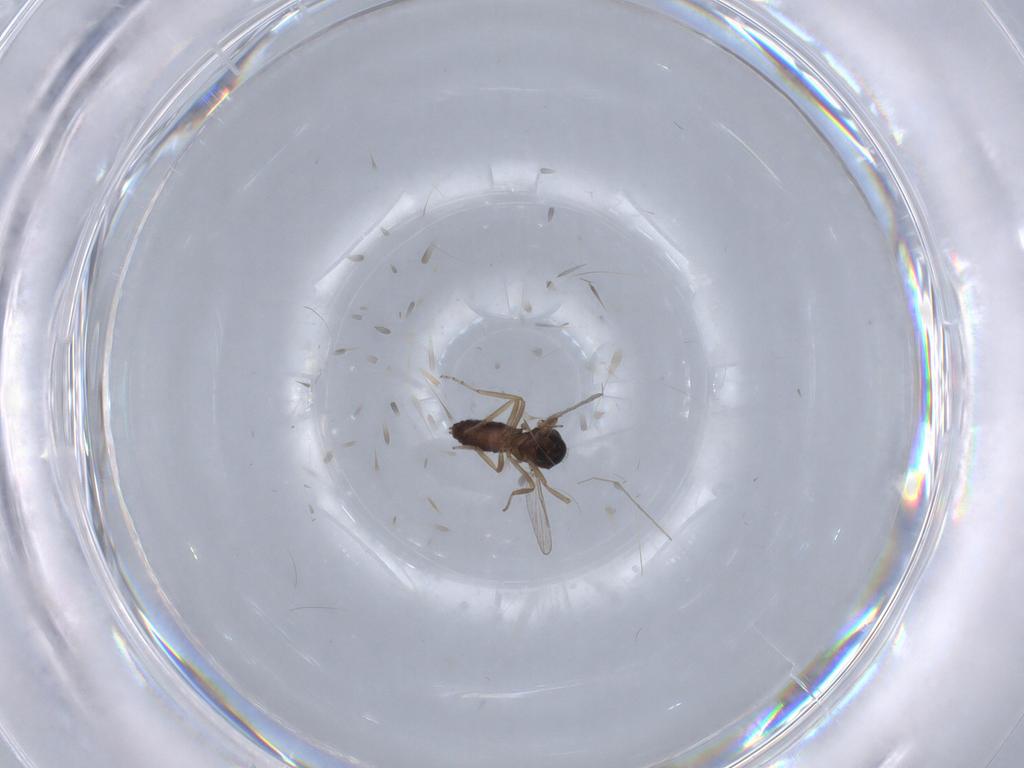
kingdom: Animalia
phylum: Arthropoda
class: Insecta
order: Diptera
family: Ceratopogonidae
